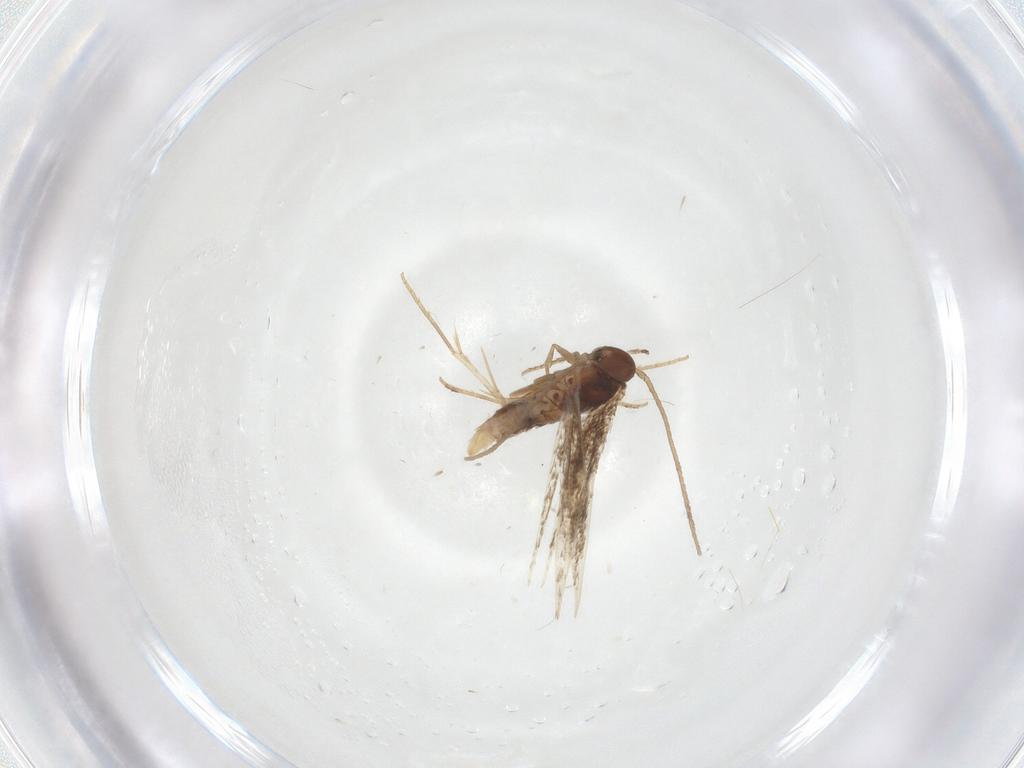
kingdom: Animalia
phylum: Arthropoda
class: Insecta
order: Lepidoptera
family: Gelechiidae
